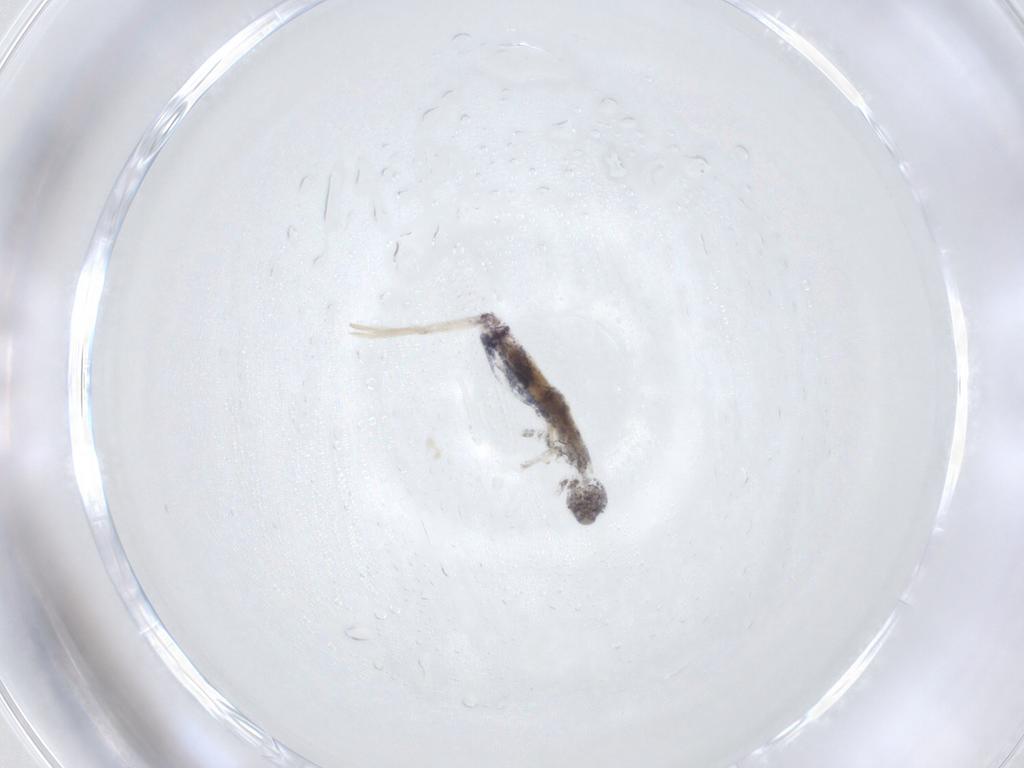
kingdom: Animalia
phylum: Arthropoda
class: Collembola
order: Entomobryomorpha
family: Entomobryidae
